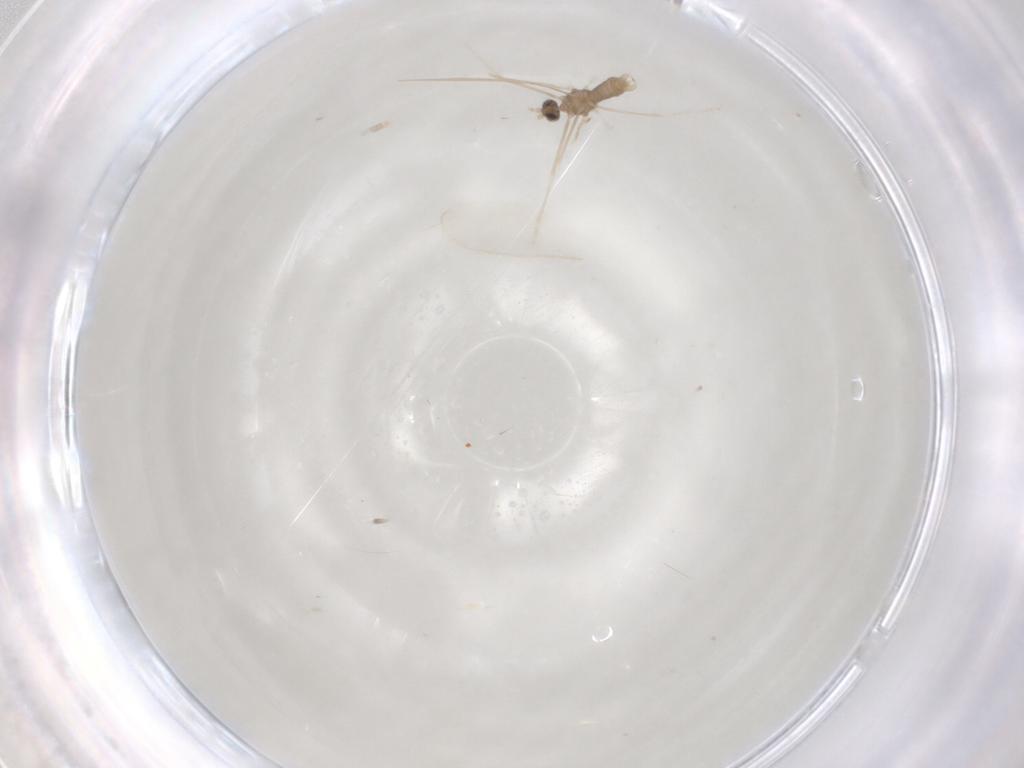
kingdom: Animalia
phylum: Arthropoda
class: Insecta
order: Diptera
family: Cecidomyiidae
